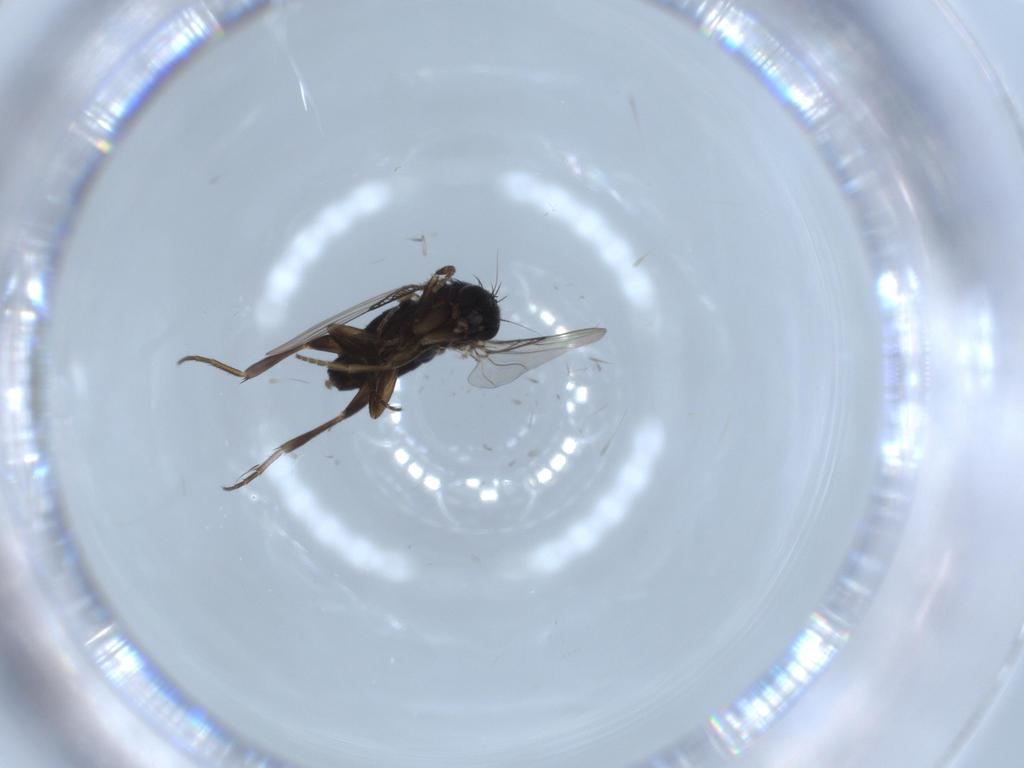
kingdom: Animalia
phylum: Arthropoda
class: Insecta
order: Diptera
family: Phoridae
